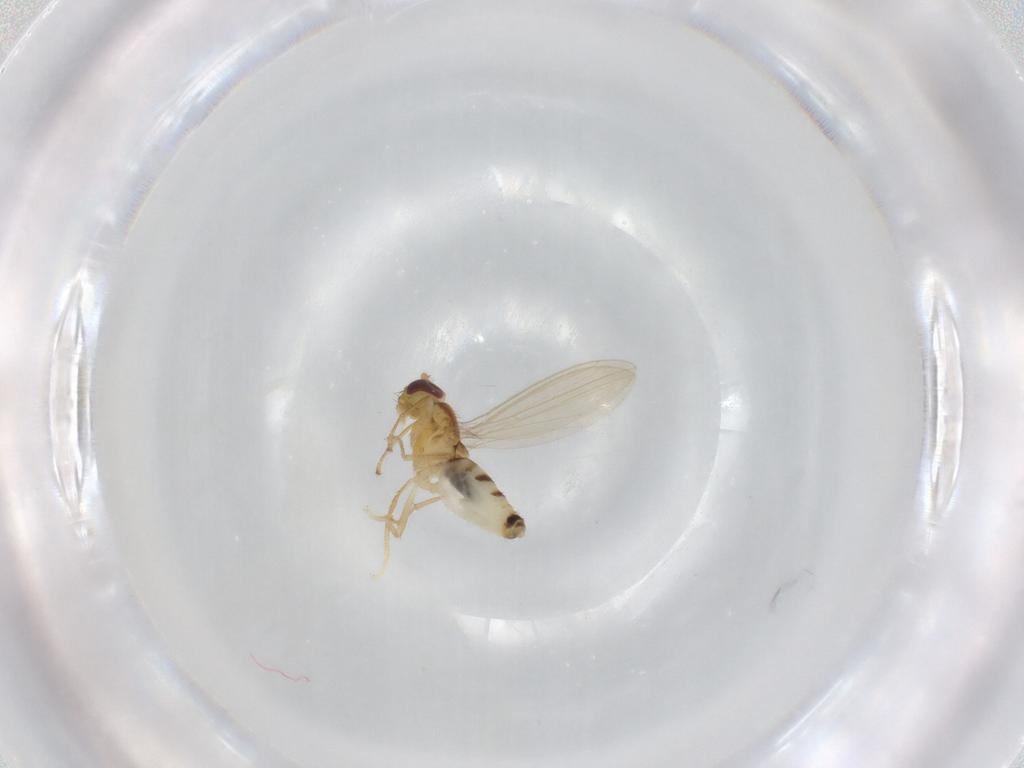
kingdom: Animalia
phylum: Arthropoda
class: Insecta
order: Diptera
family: Periscelididae
